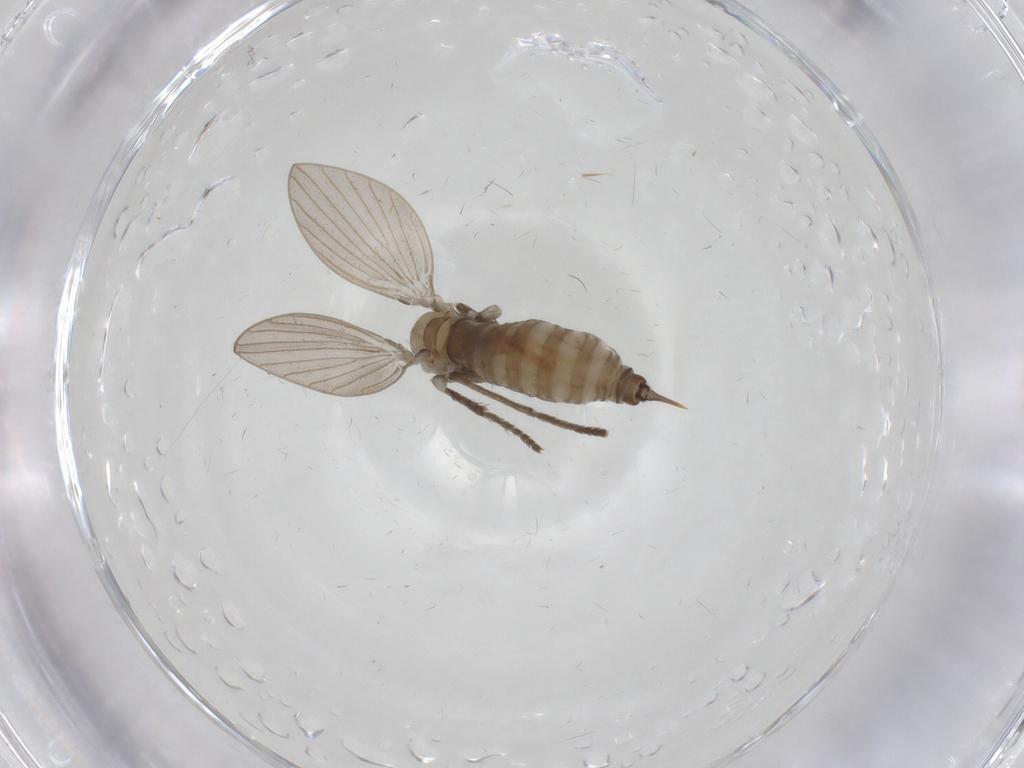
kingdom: Animalia
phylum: Arthropoda
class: Insecta
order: Diptera
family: Psychodidae
